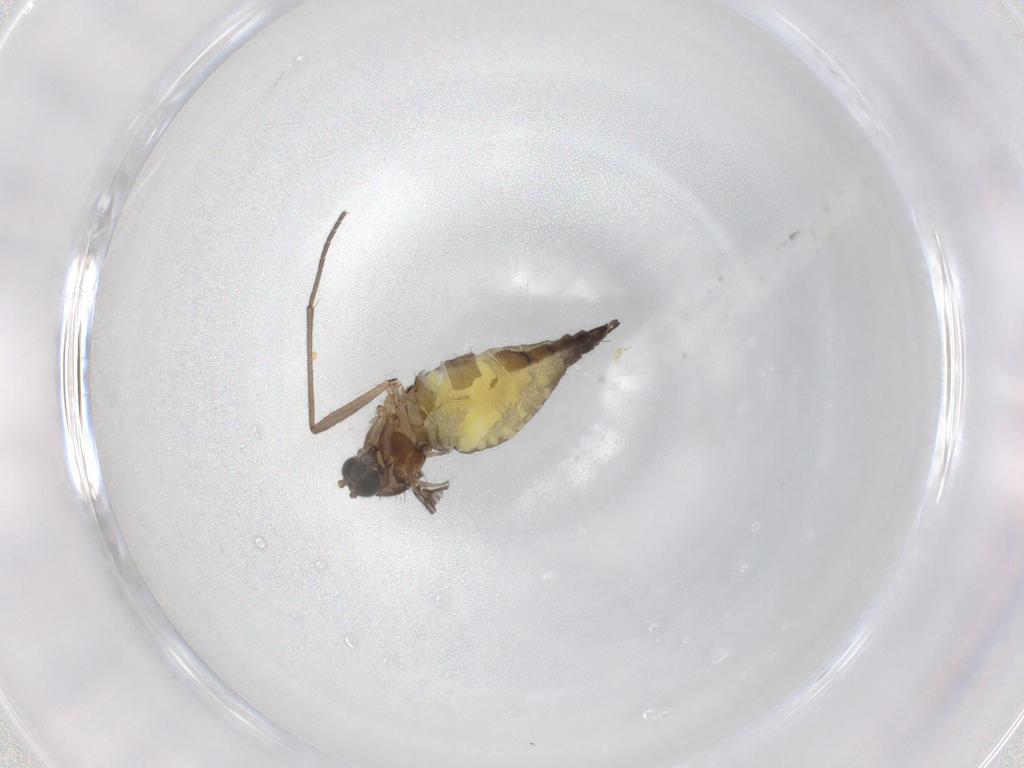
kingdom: Animalia
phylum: Arthropoda
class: Insecta
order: Diptera
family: Sciaridae
